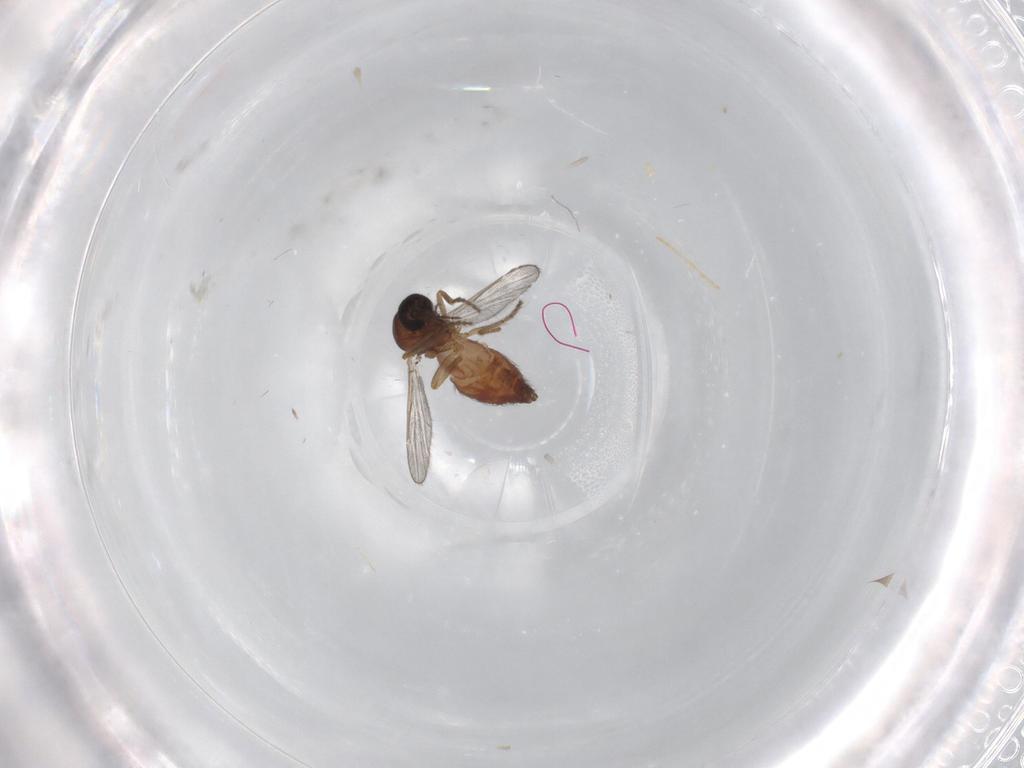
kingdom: Animalia
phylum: Arthropoda
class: Insecta
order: Diptera
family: Ceratopogonidae
